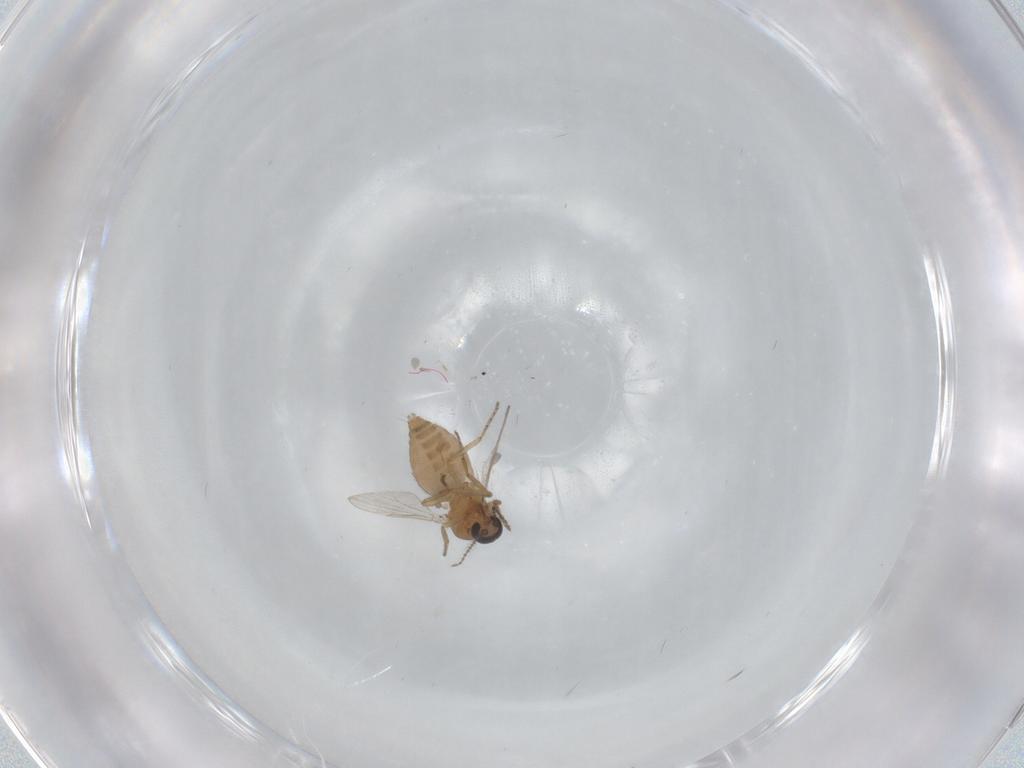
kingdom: Animalia
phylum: Arthropoda
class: Insecta
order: Diptera
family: Ceratopogonidae
